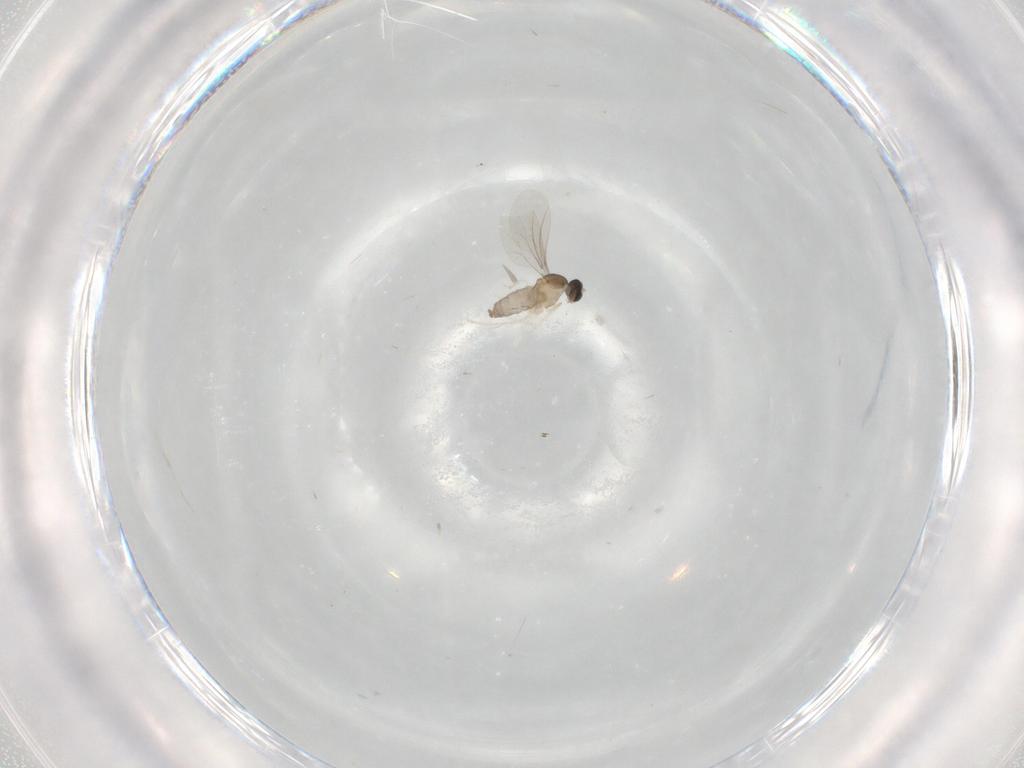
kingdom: Animalia
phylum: Arthropoda
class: Insecta
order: Diptera
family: Cecidomyiidae
